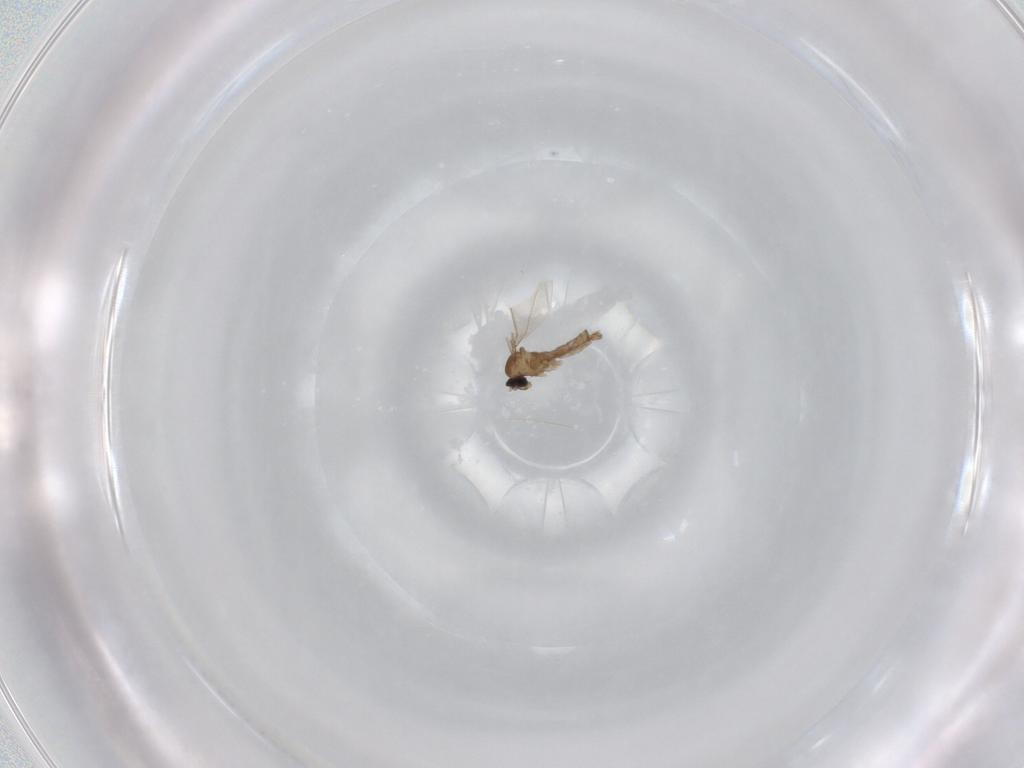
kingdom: Animalia
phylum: Arthropoda
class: Insecta
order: Diptera
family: Cecidomyiidae
